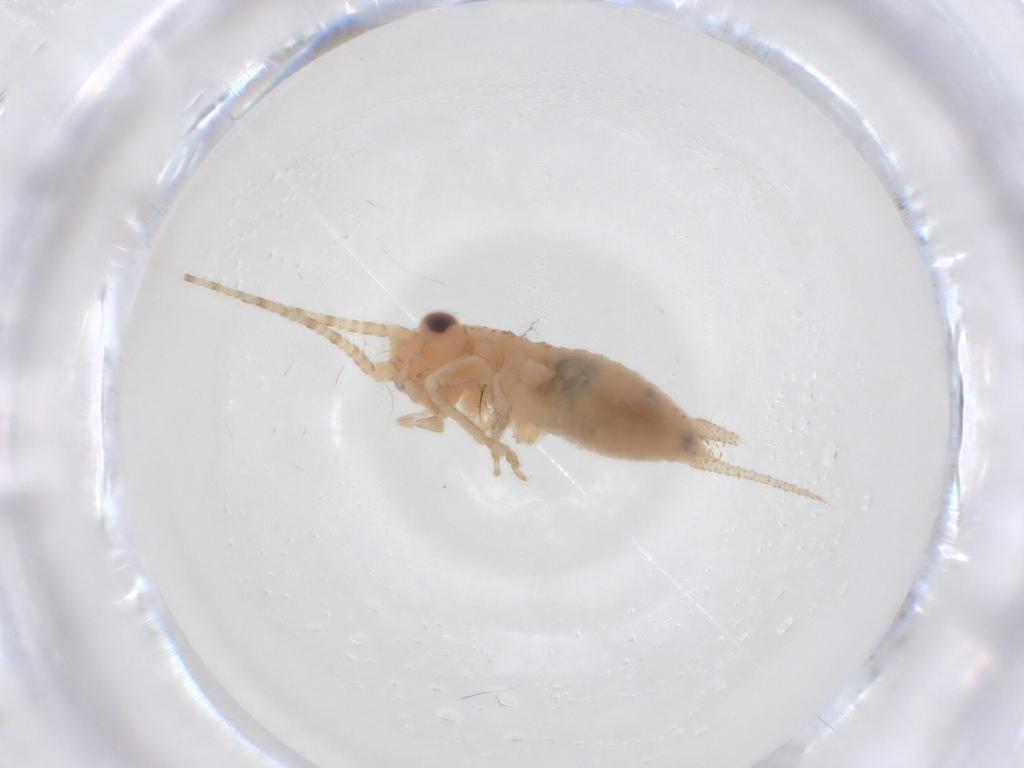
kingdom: Animalia
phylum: Arthropoda
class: Insecta
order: Orthoptera
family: Trigonidiidae
